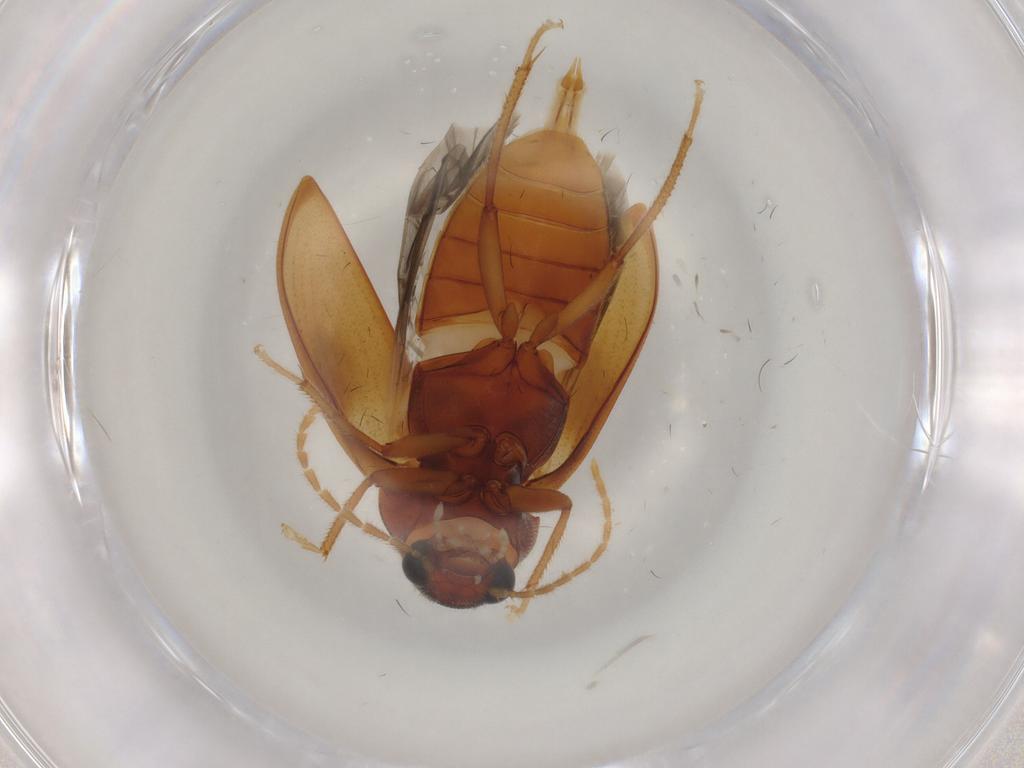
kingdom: Animalia
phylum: Arthropoda
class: Insecta
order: Coleoptera
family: Ptilodactylidae
